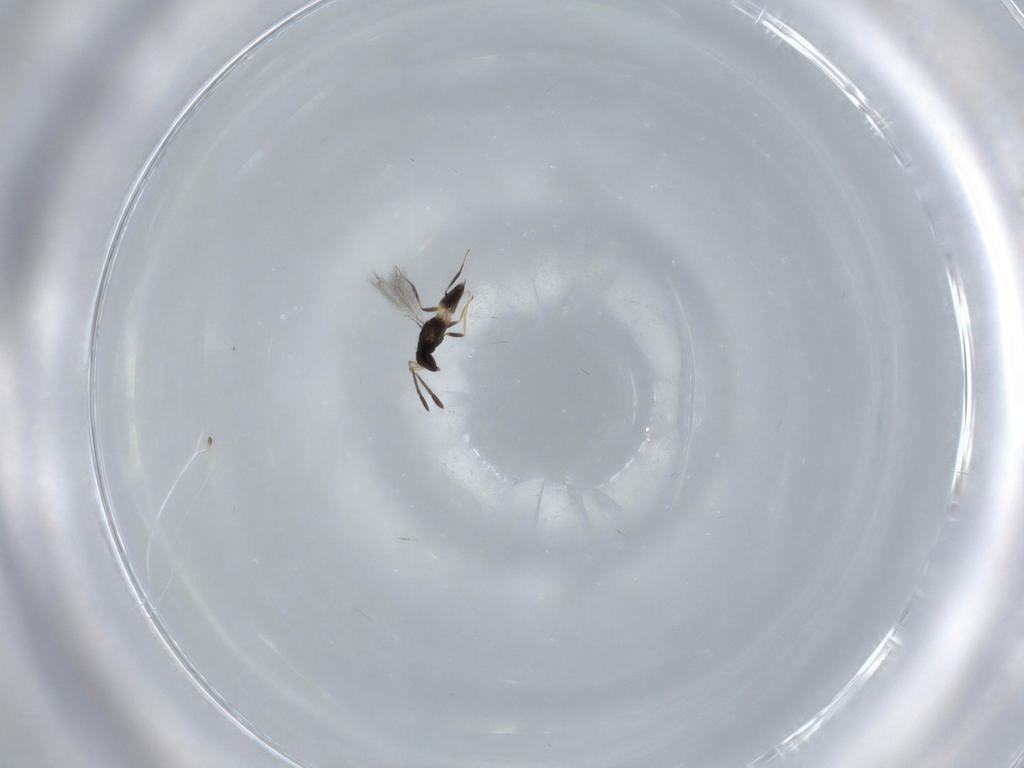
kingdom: Animalia
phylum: Arthropoda
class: Insecta
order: Hymenoptera
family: Mymaridae
